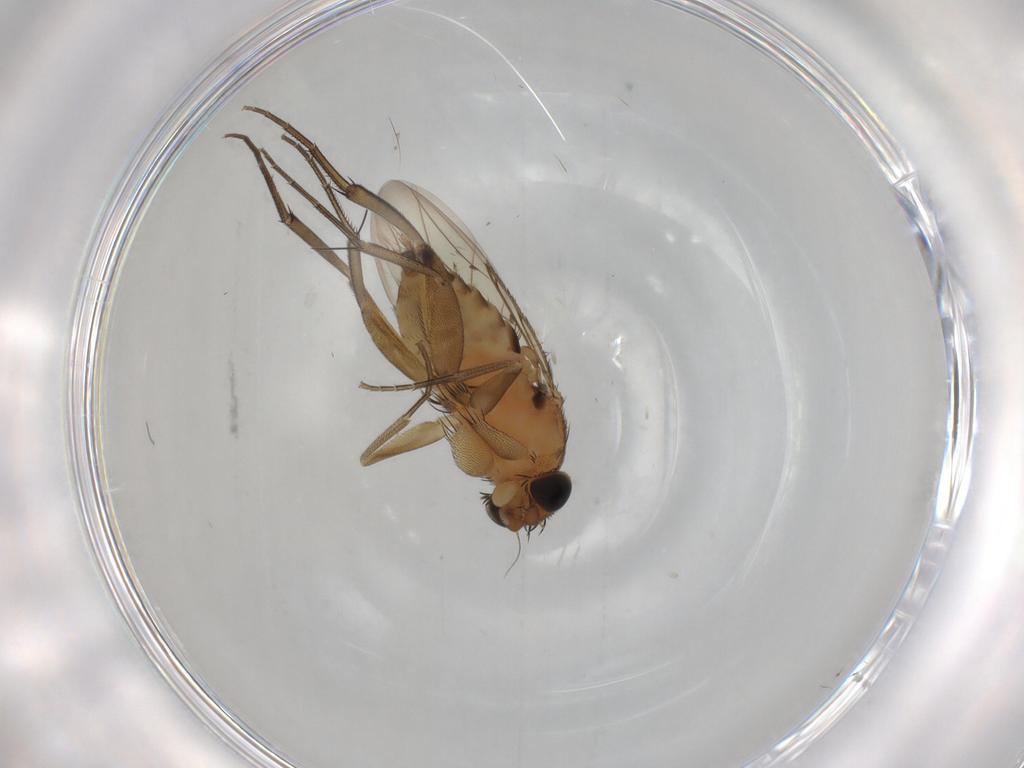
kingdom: Animalia
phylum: Arthropoda
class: Insecta
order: Diptera
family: Phoridae
